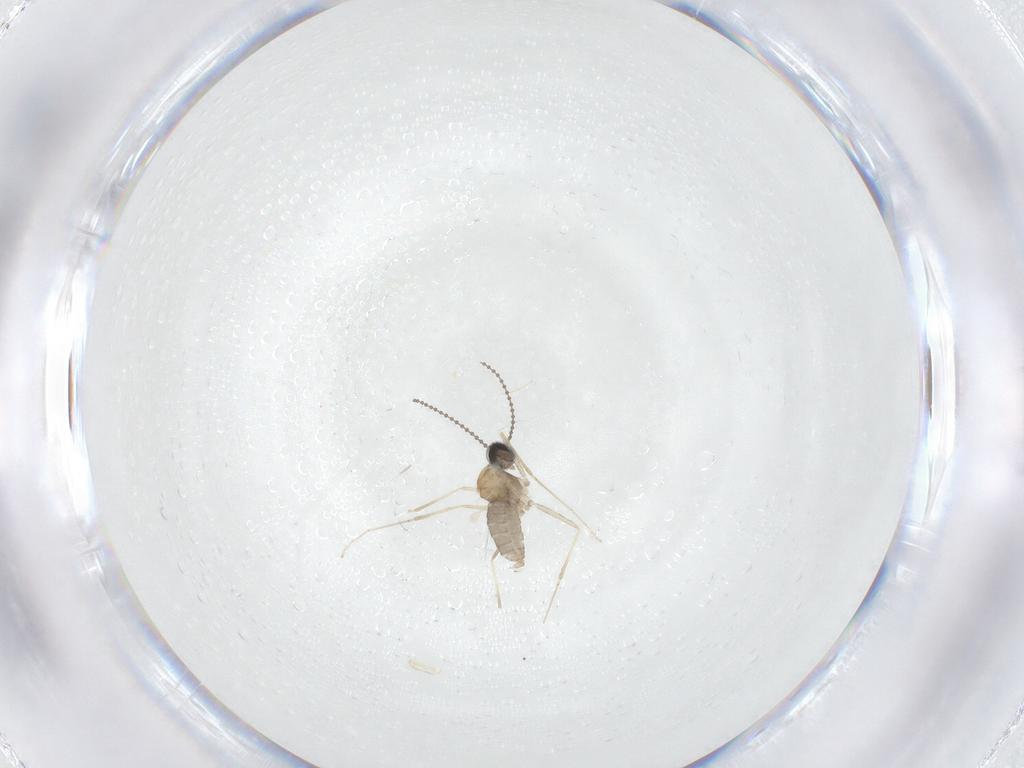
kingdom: Animalia
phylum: Arthropoda
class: Insecta
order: Diptera
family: Cecidomyiidae
